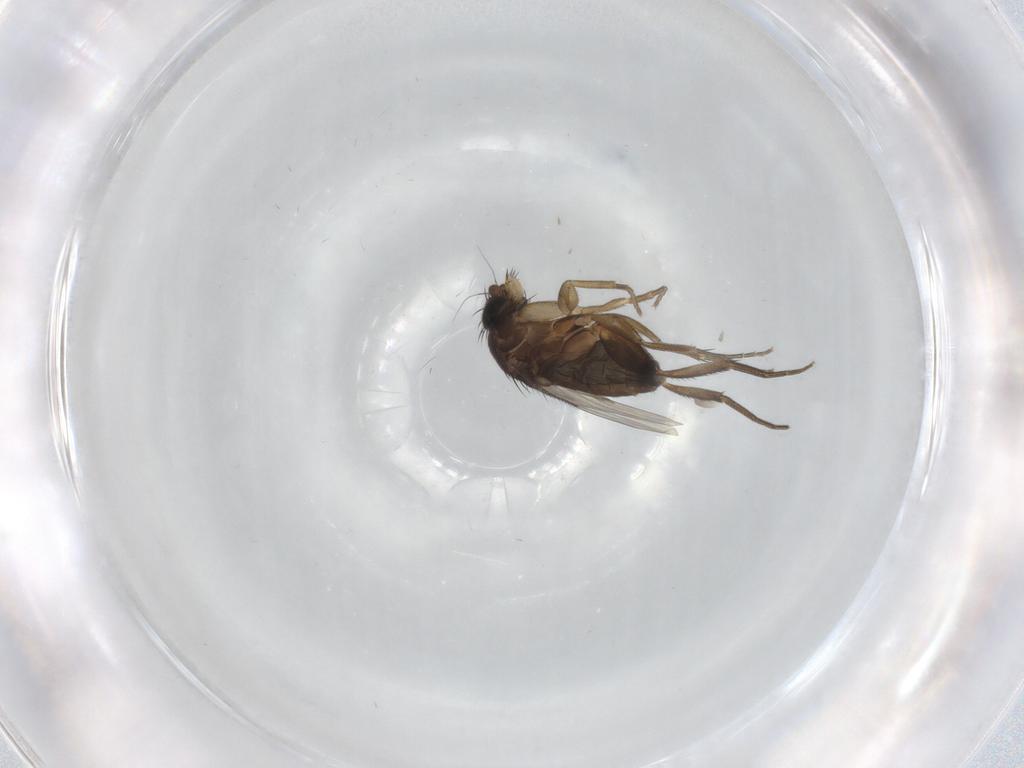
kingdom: Animalia
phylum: Arthropoda
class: Insecta
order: Diptera
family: Phoridae
